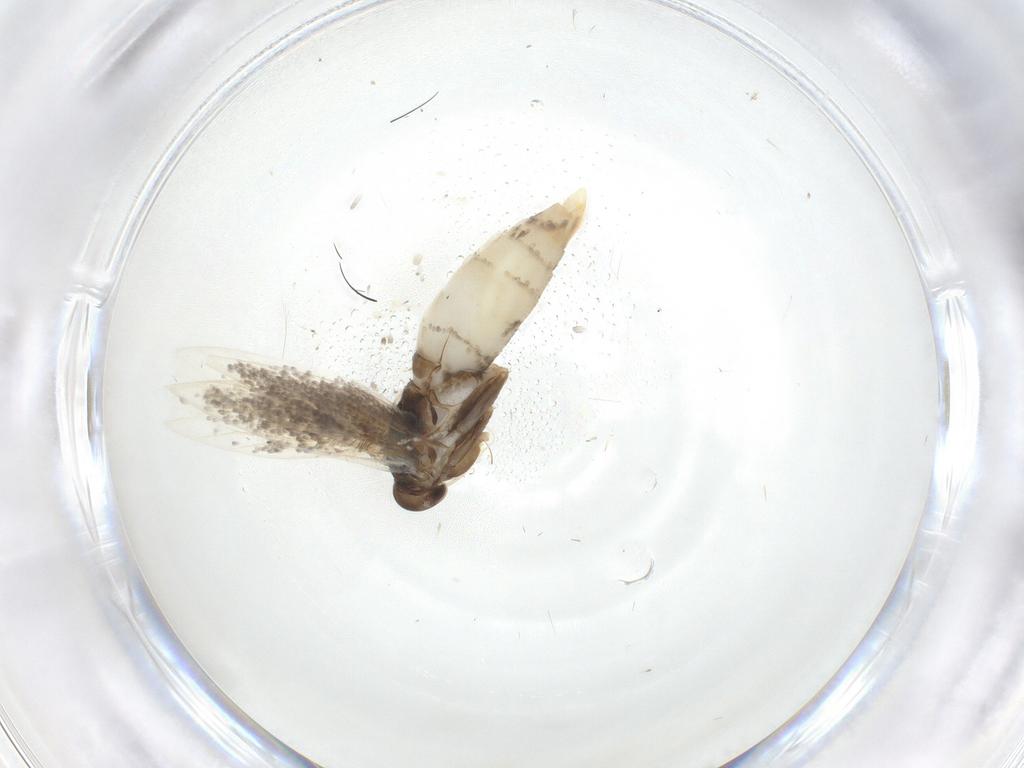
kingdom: Animalia
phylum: Arthropoda
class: Insecta
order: Lepidoptera
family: Elachistidae
